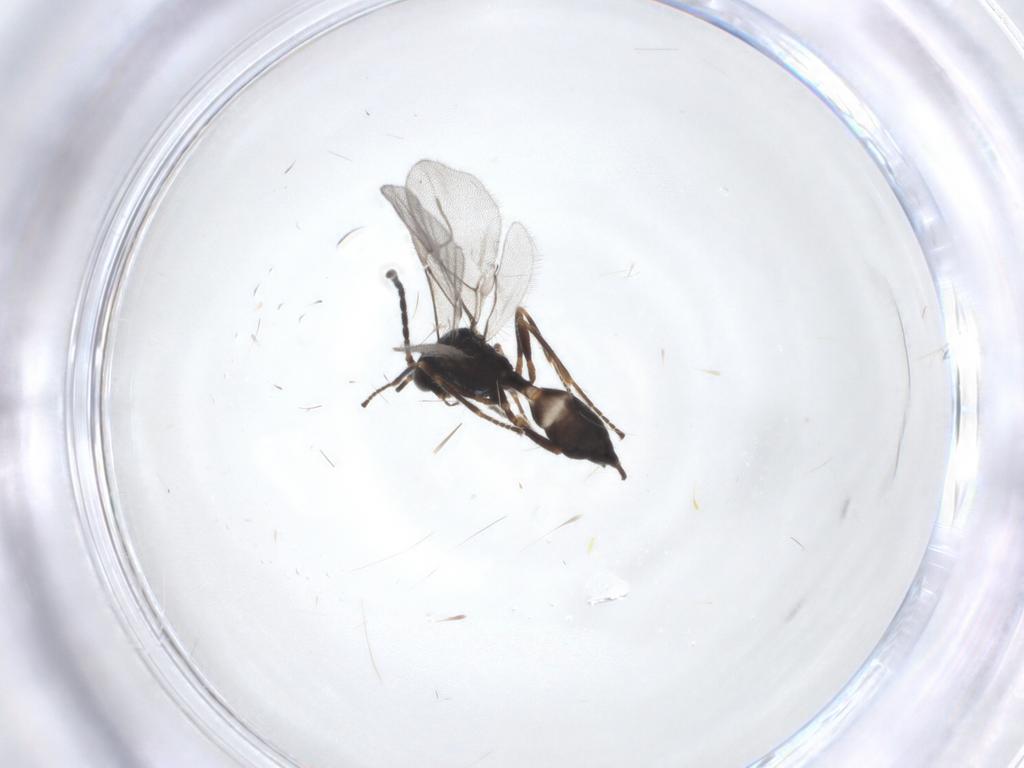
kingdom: Animalia
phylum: Arthropoda
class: Insecta
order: Hymenoptera
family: Braconidae
